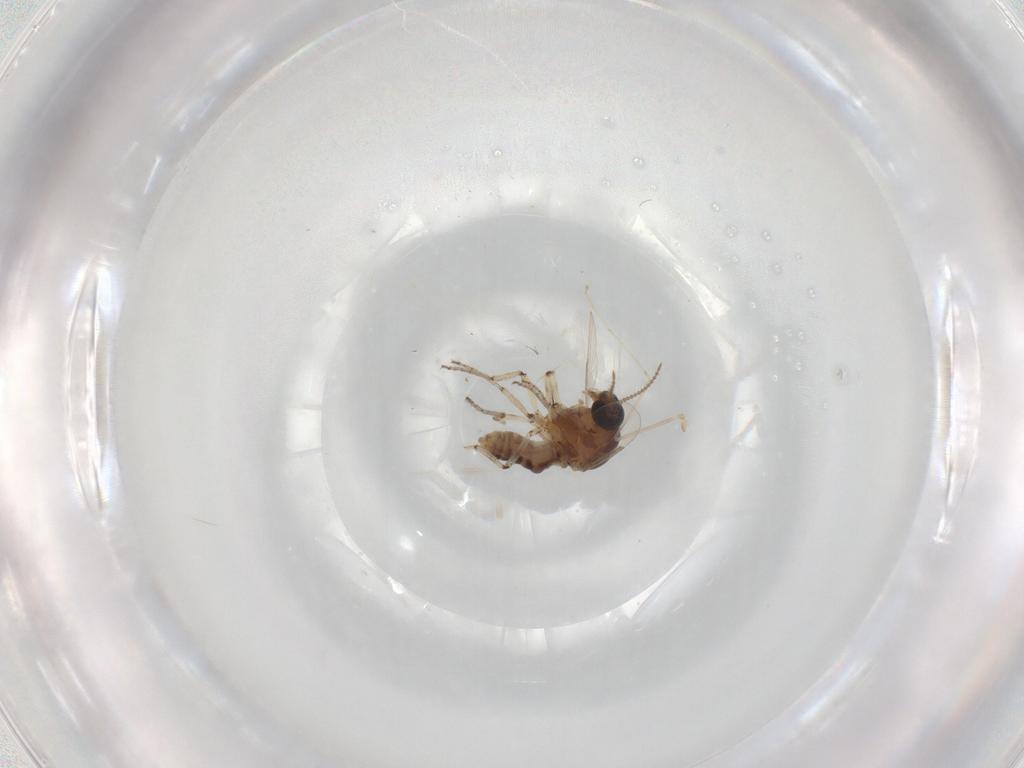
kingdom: Animalia
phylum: Arthropoda
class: Insecta
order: Diptera
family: Ceratopogonidae
